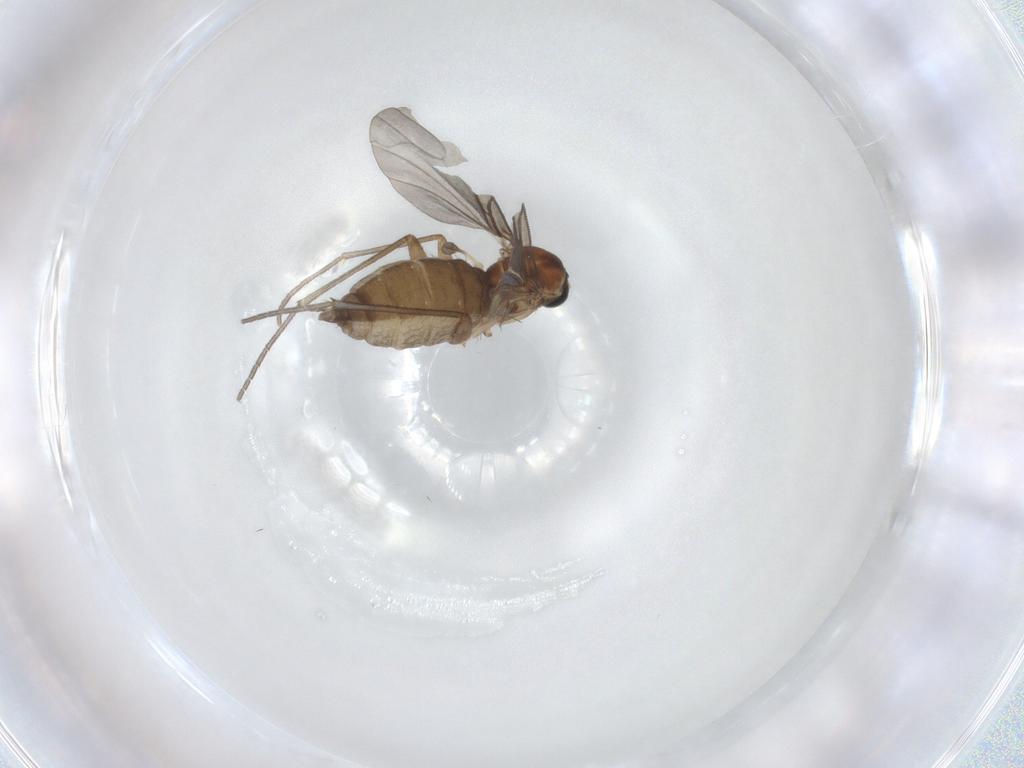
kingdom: Animalia
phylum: Arthropoda
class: Insecta
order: Diptera
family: Sciaridae
